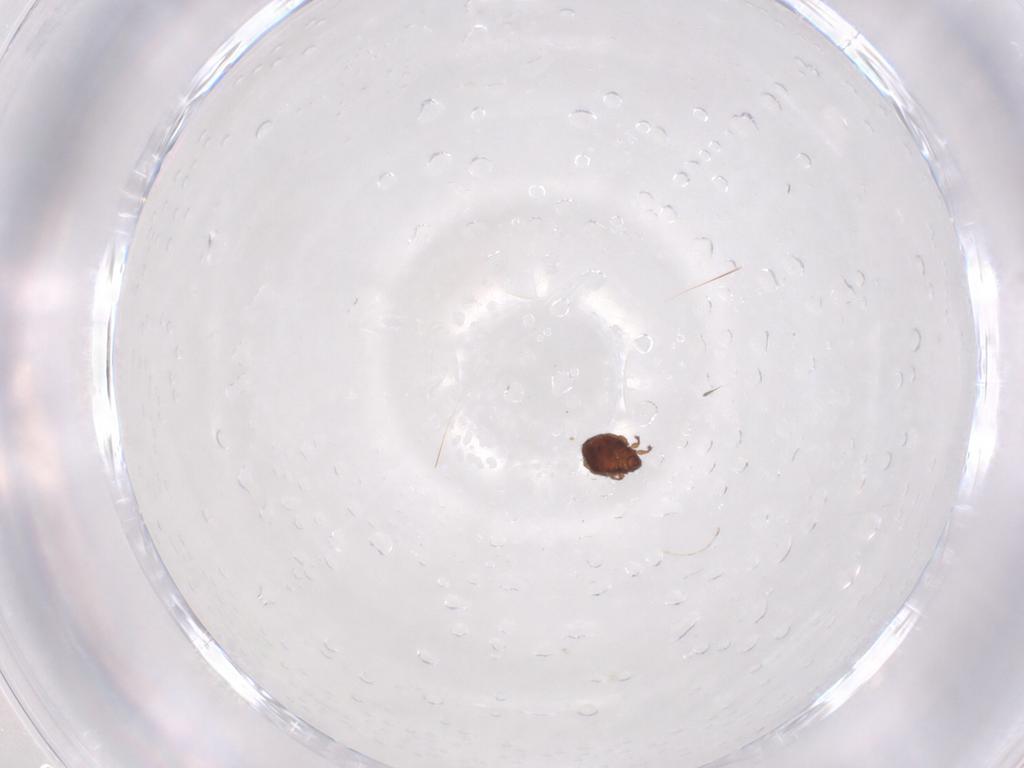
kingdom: Animalia
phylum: Arthropoda
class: Arachnida
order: Sarcoptiformes
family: Scheloribatidae
